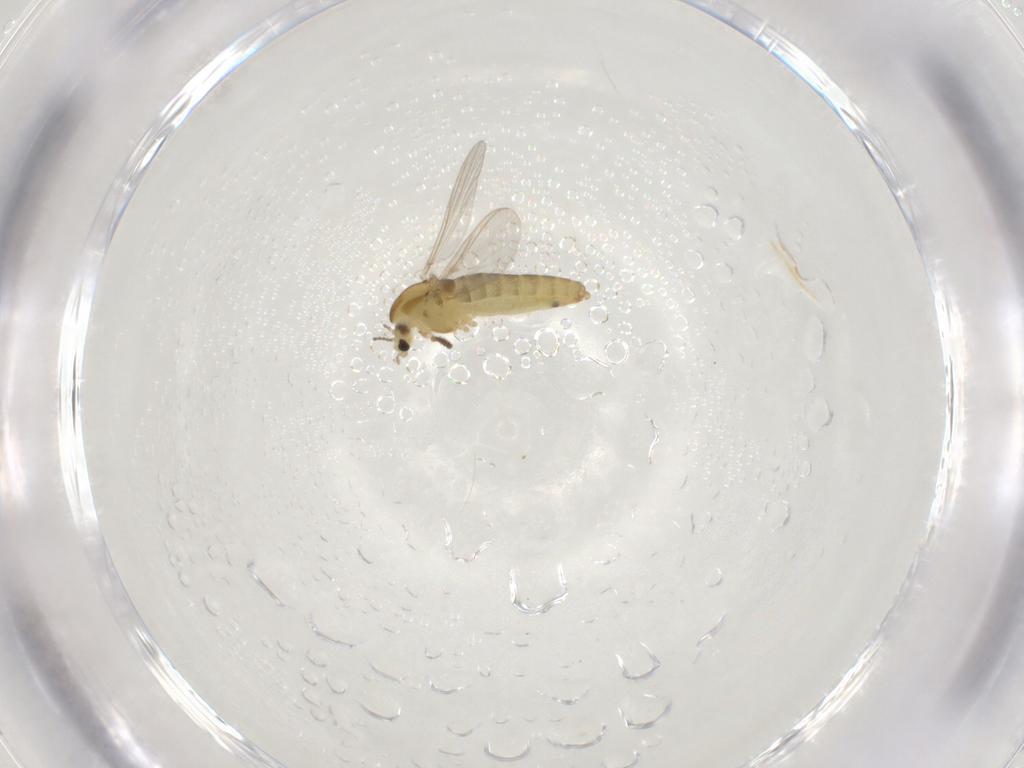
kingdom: Animalia
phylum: Arthropoda
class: Insecta
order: Diptera
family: Chironomidae
